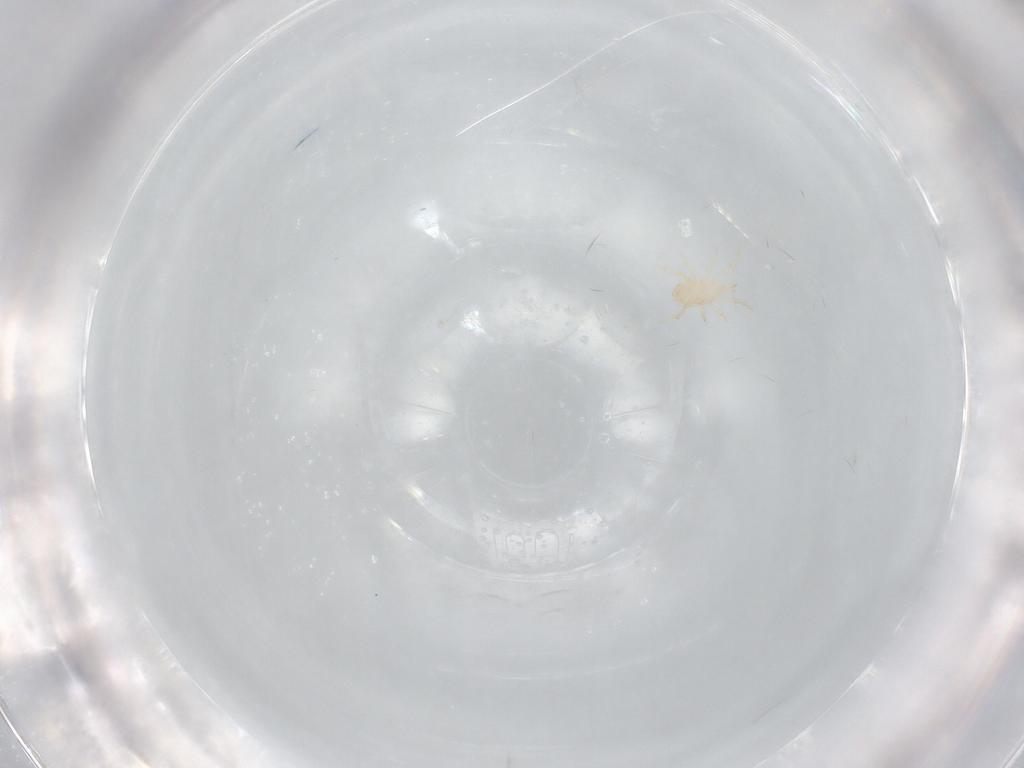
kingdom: Animalia
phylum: Arthropoda
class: Arachnida
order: Mesostigmata
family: Blattisociidae
